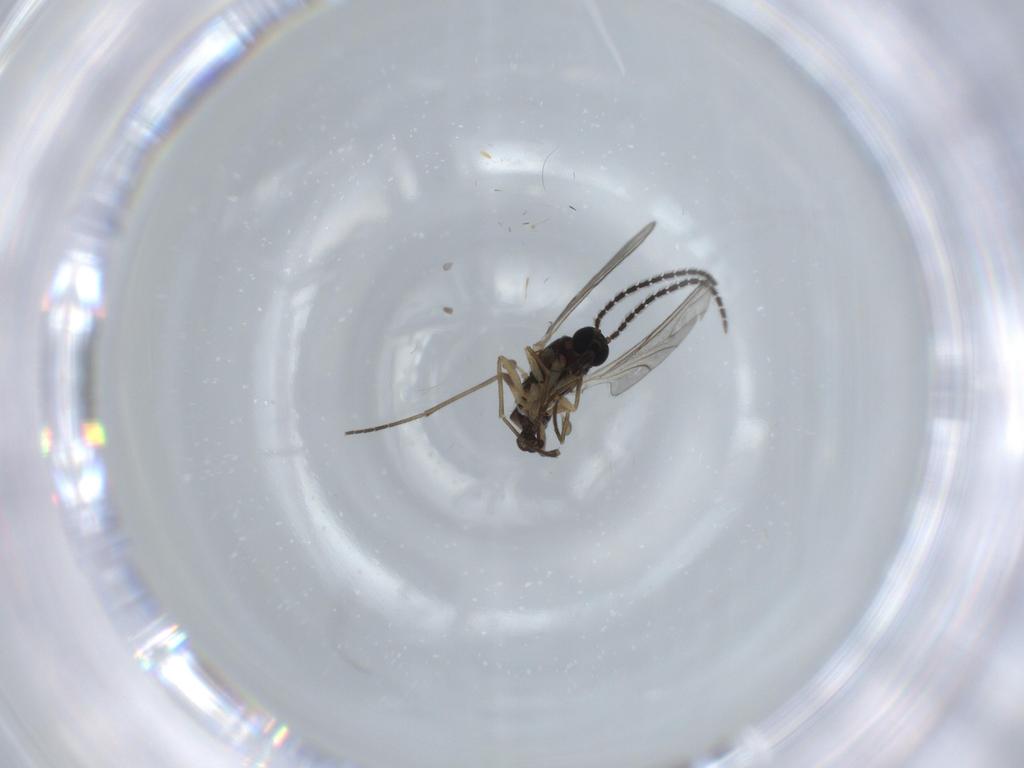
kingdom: Animalia
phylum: Arthropoda
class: Insecta
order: Diptera
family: Sciaridae
